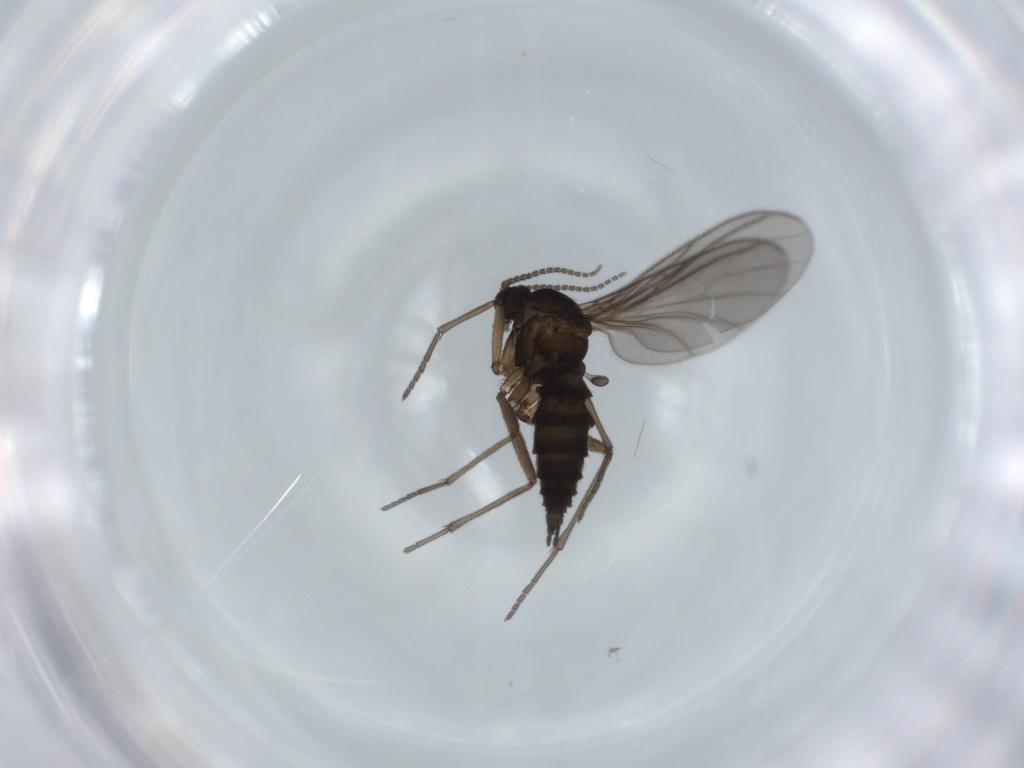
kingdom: Animalia
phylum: Arthropoda
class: Insecta
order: Diptera
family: Sciaridae
